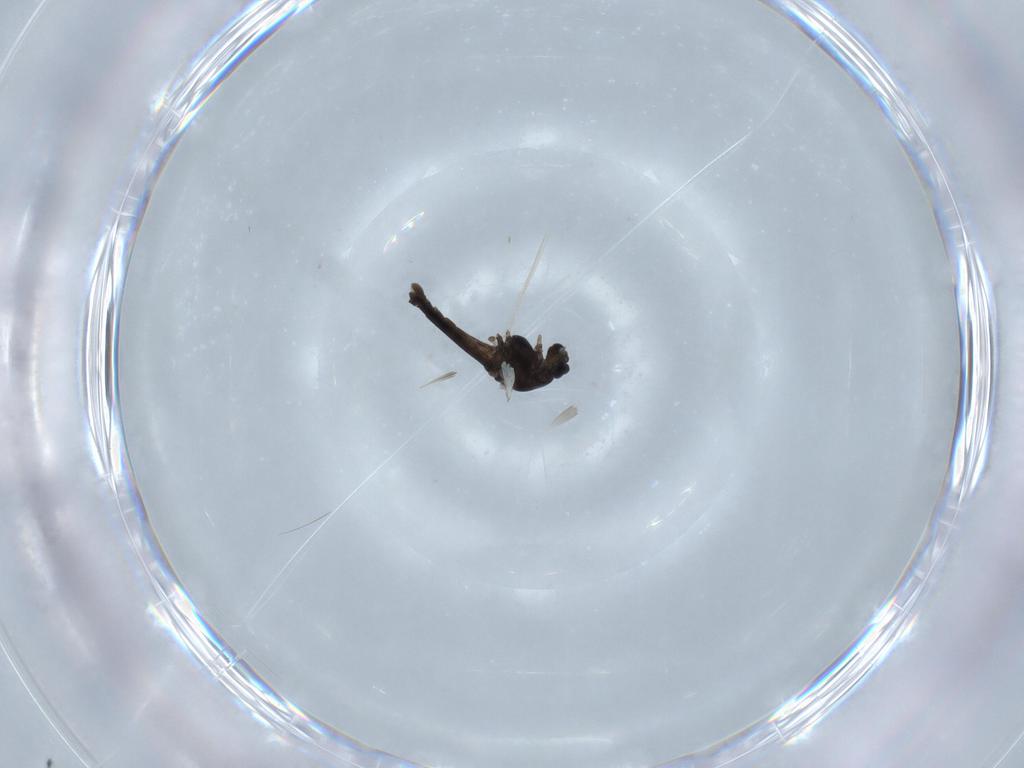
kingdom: Animalia
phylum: Arthropoda
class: Insecta
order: Diptera
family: Chironomidae
